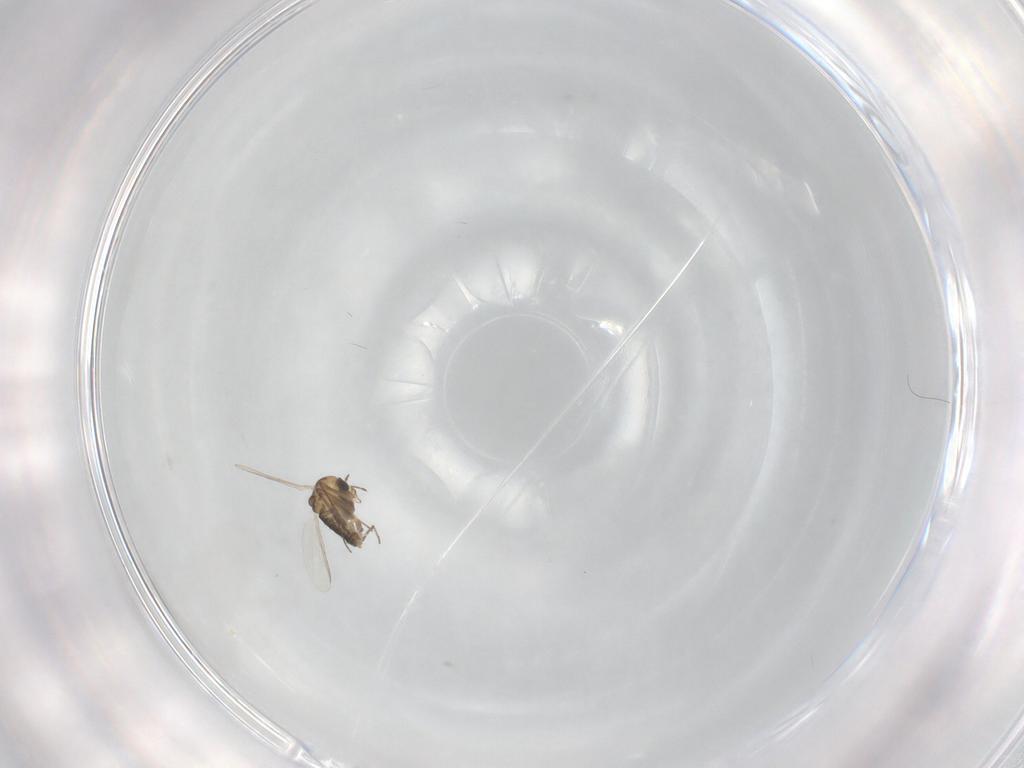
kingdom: Animalia
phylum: Arthropoda
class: Insecta
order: Diptera
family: Chironomidae
